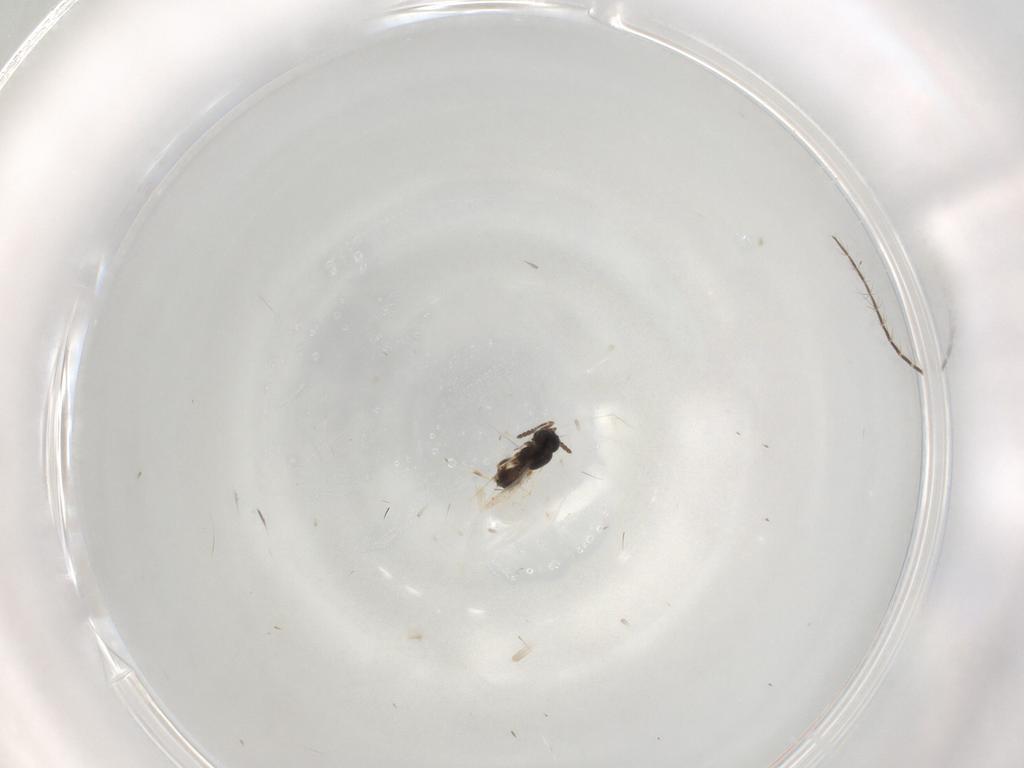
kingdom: Animalia
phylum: Arthropoda
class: Insecta
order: Hymenoptera
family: Scelionidae
